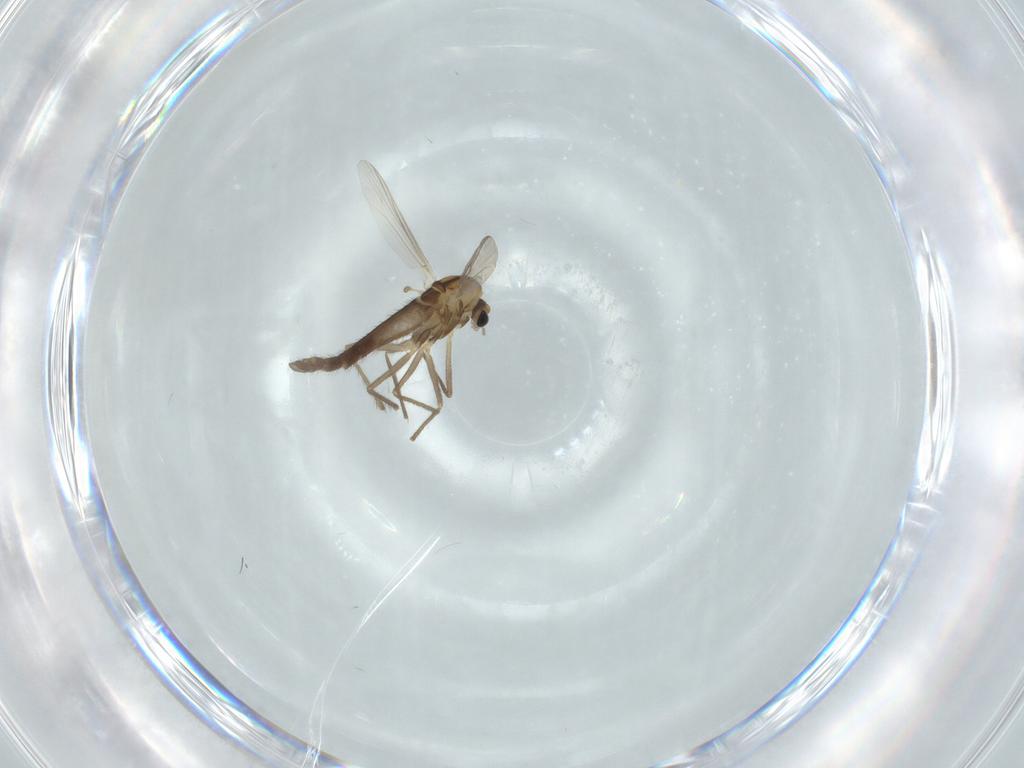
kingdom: Animalia
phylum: Arthropoda
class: Insecta
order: Diptera
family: Chironomidae
